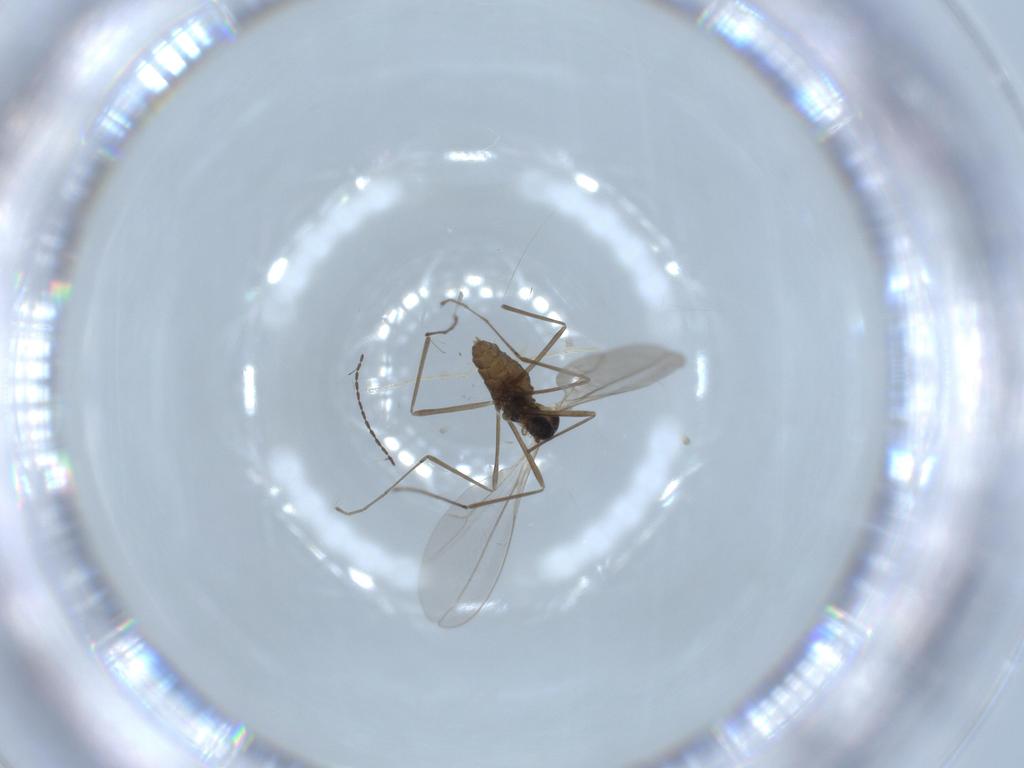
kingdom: Animalia
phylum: Arthropoda
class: Insecta
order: Diptera
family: Cecidomyiidae
